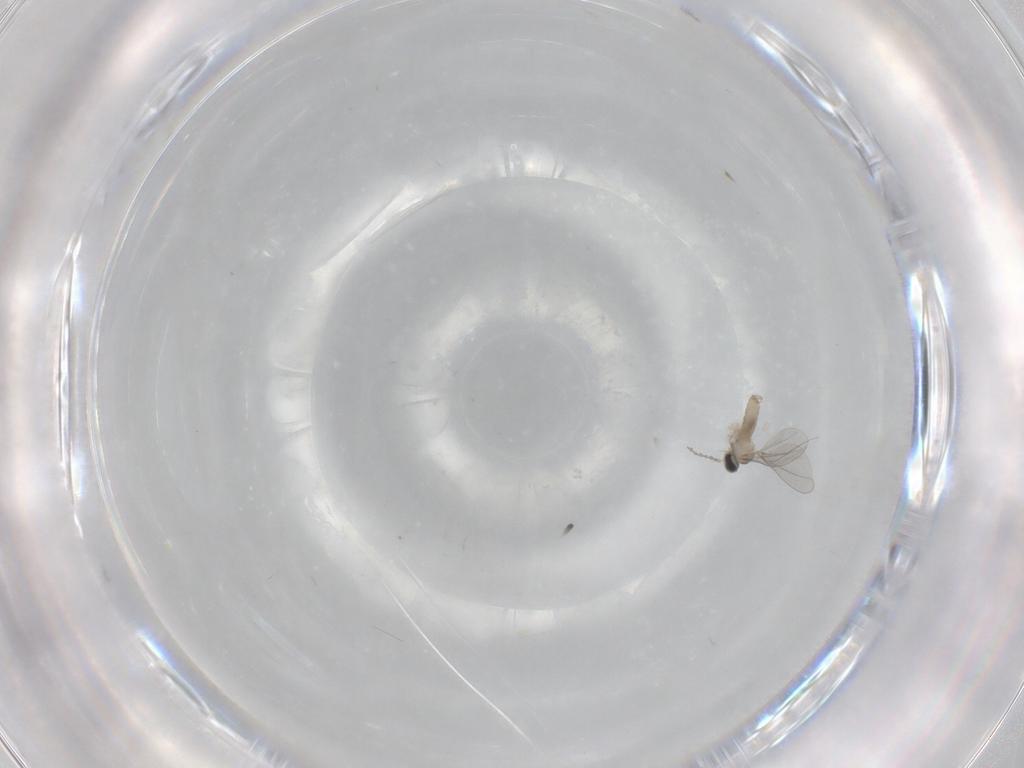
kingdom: Animalia
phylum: Arthropoda
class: Insecta
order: Diptera
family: Cecidomyiidae
